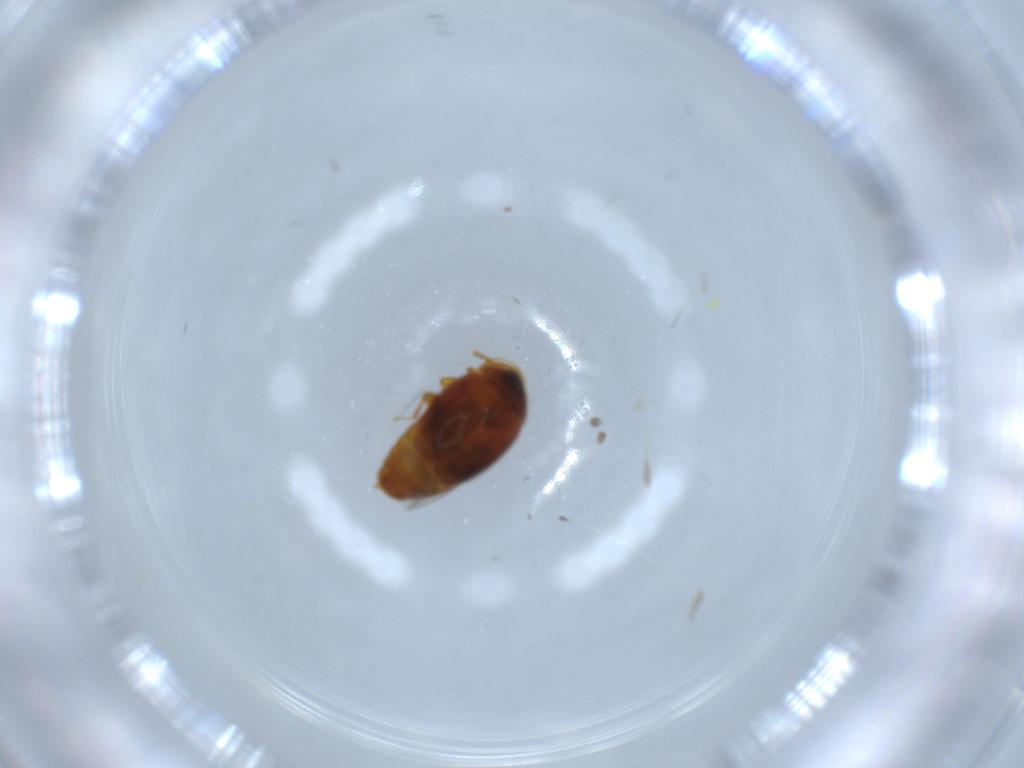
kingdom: Animalia
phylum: Arthropoda
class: Insecta
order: Coleoptera
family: Corylophidae
